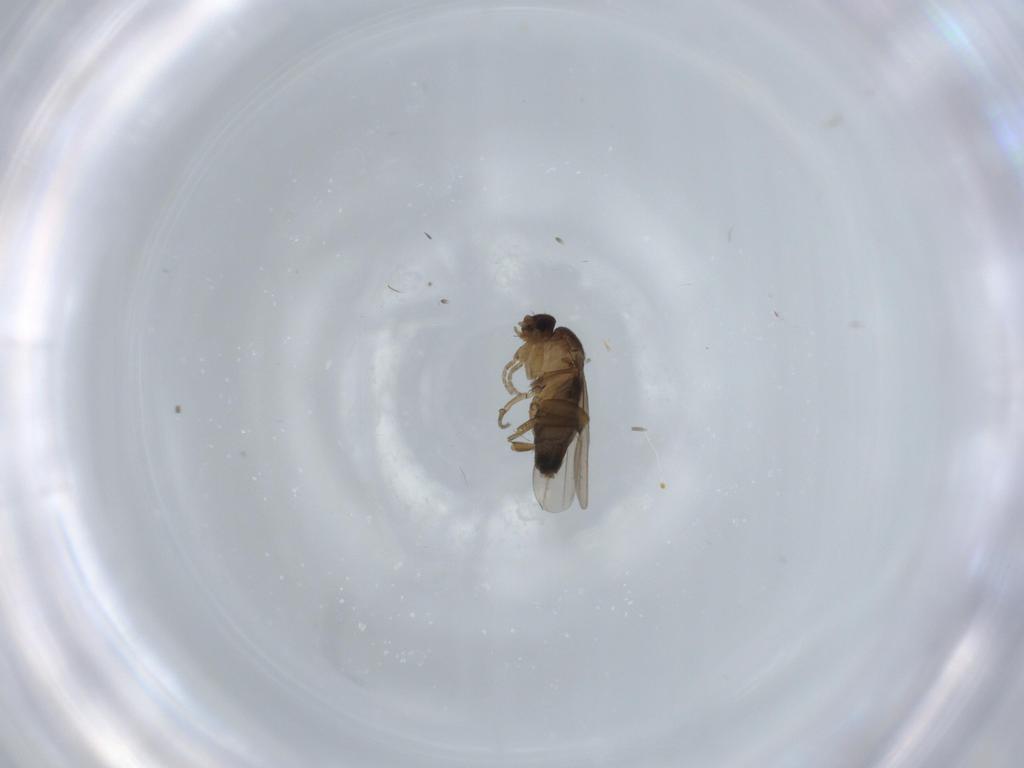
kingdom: Animalia
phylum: Arthropoda
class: Insecta
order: Diptera
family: Phoridae
